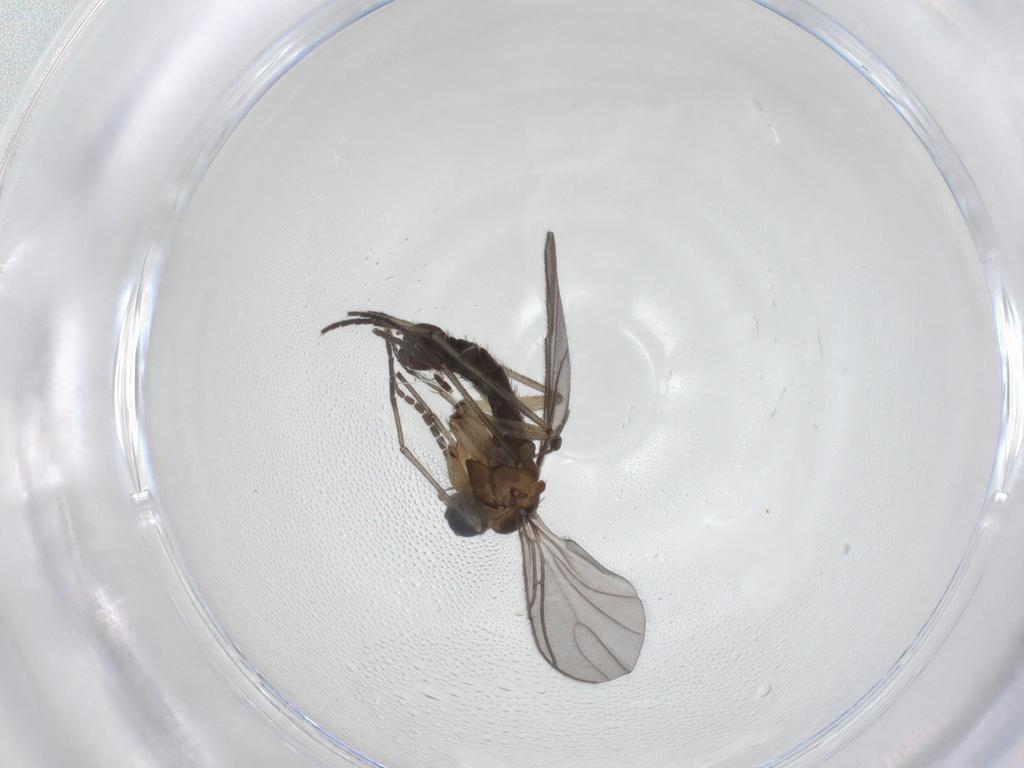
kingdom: Animalia
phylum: Arthropoda
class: Insecta
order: Diptera
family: Sciaridae
